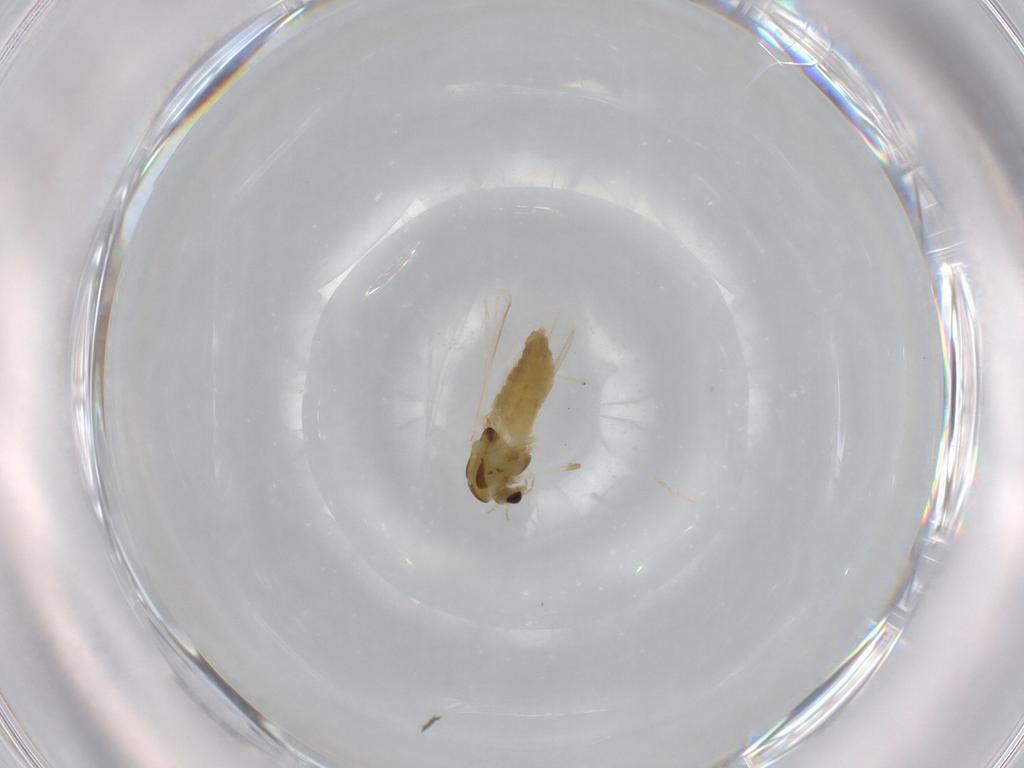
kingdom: Animalia
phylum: Arthropoda
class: Insecta
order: Diptera
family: Chironomidae
